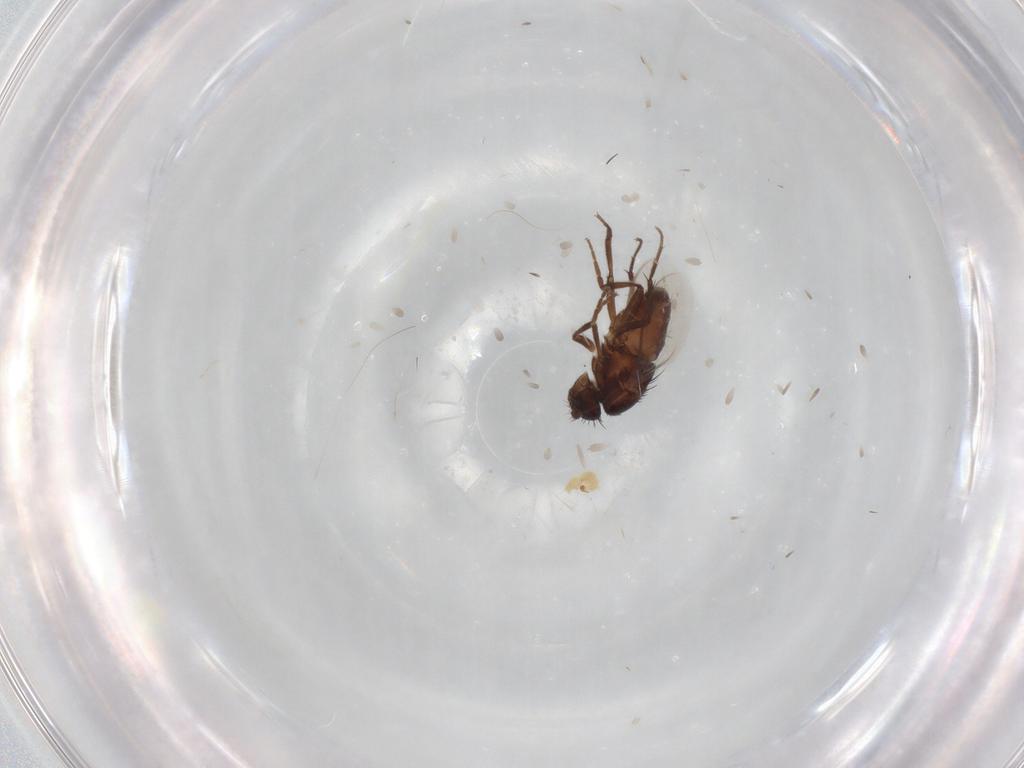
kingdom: Animalia
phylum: Arthropoda
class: Insecta
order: Diptera
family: Sphaeroceridae
